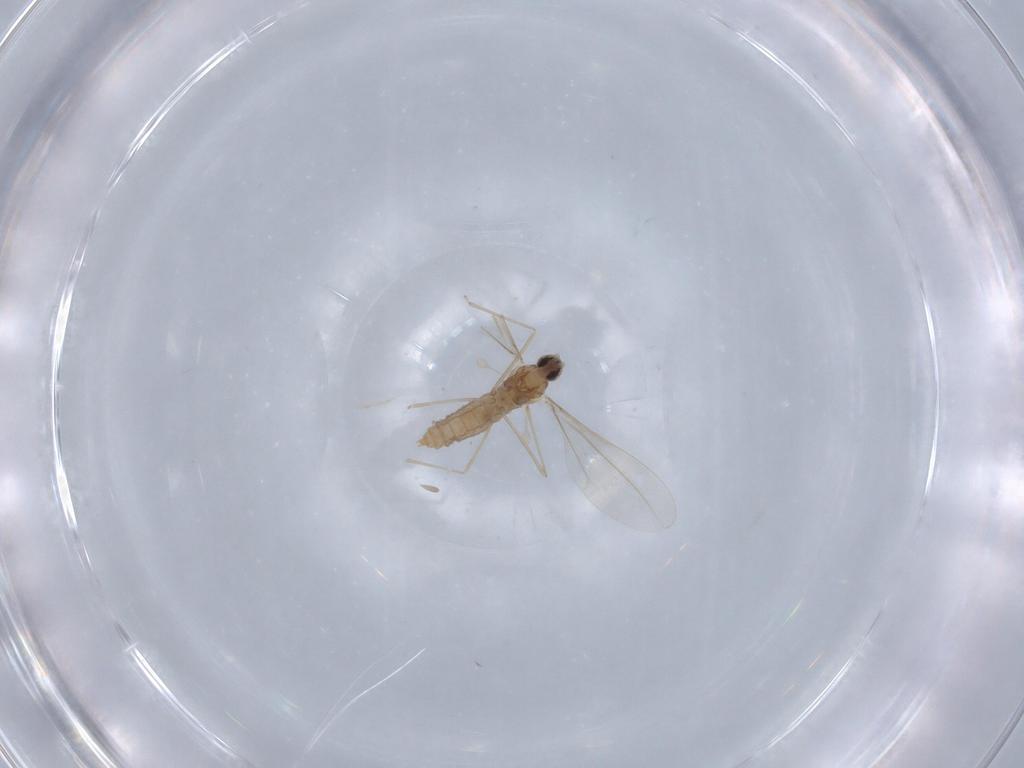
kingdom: Animalia
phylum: Arthropoda
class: Insecta
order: Diptera
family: Cecidomyiidae
